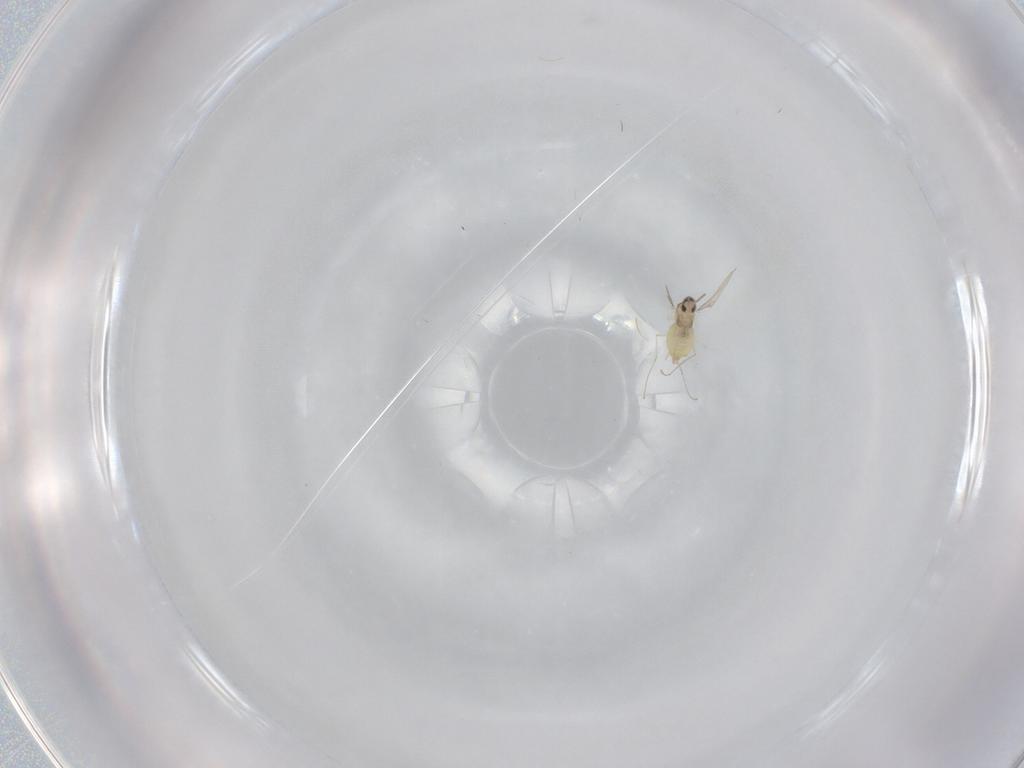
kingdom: Animalia
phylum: Arthropoda
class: Insecta
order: Diptera
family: Cecidomyiidae
